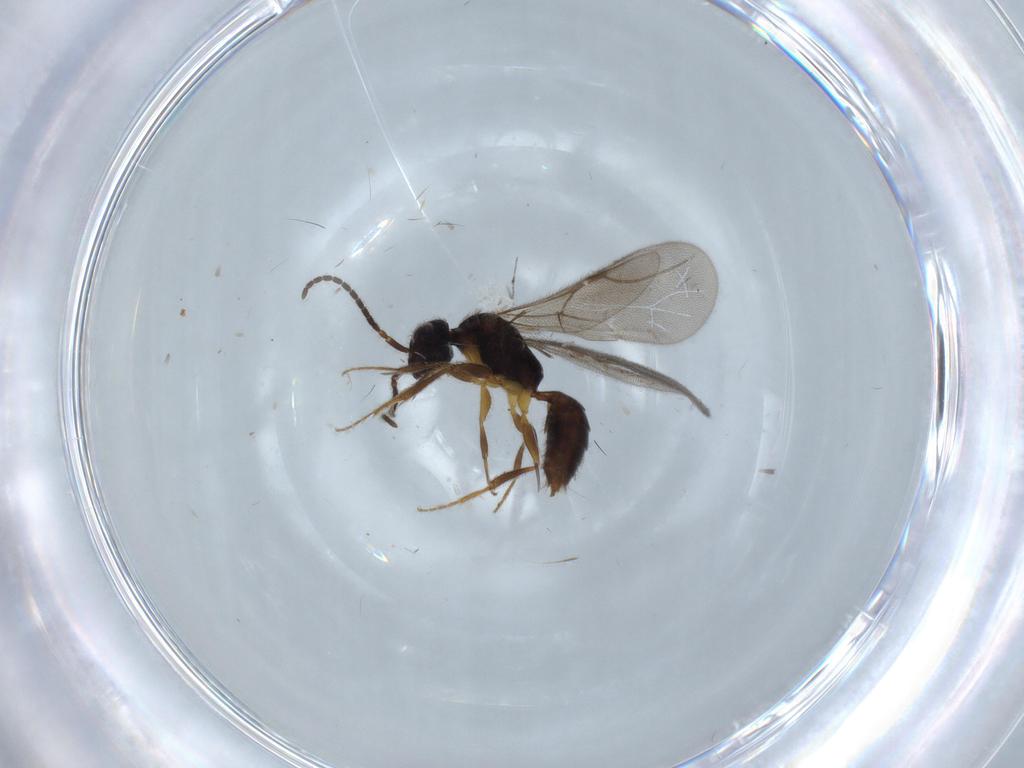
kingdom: Animalia
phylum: Arthropoda
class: Insecta
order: Hymenoptera
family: Bethylidae
